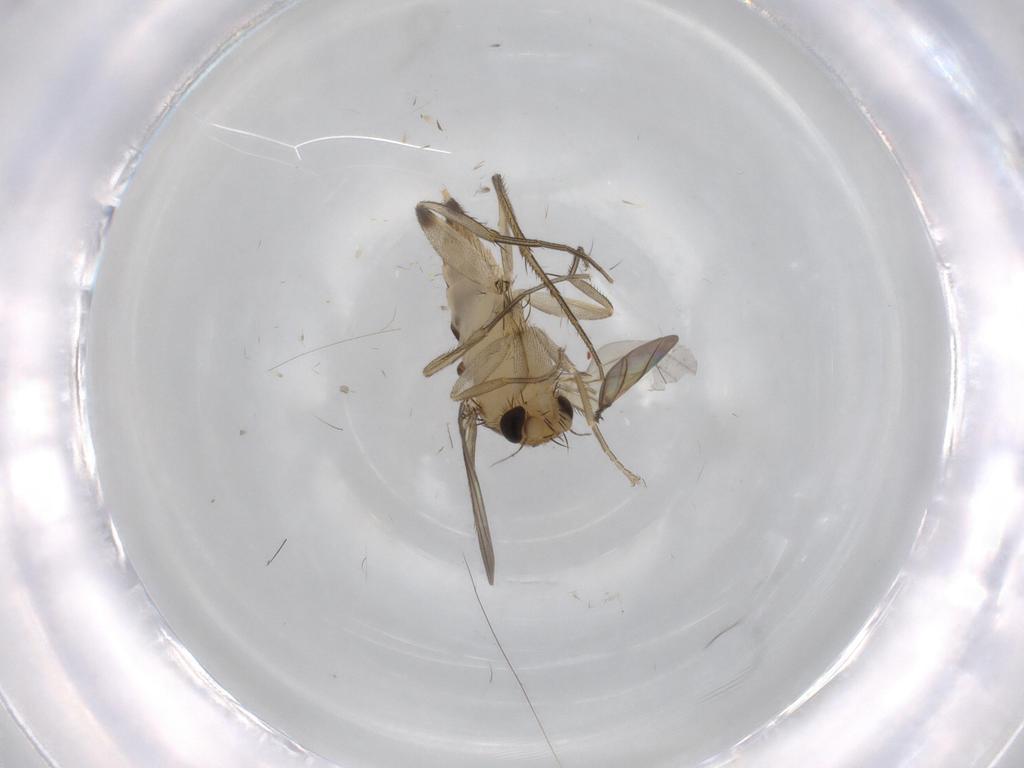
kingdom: Animalia
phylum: Arthropoda
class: Insecta
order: Diptera
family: Phoridae
